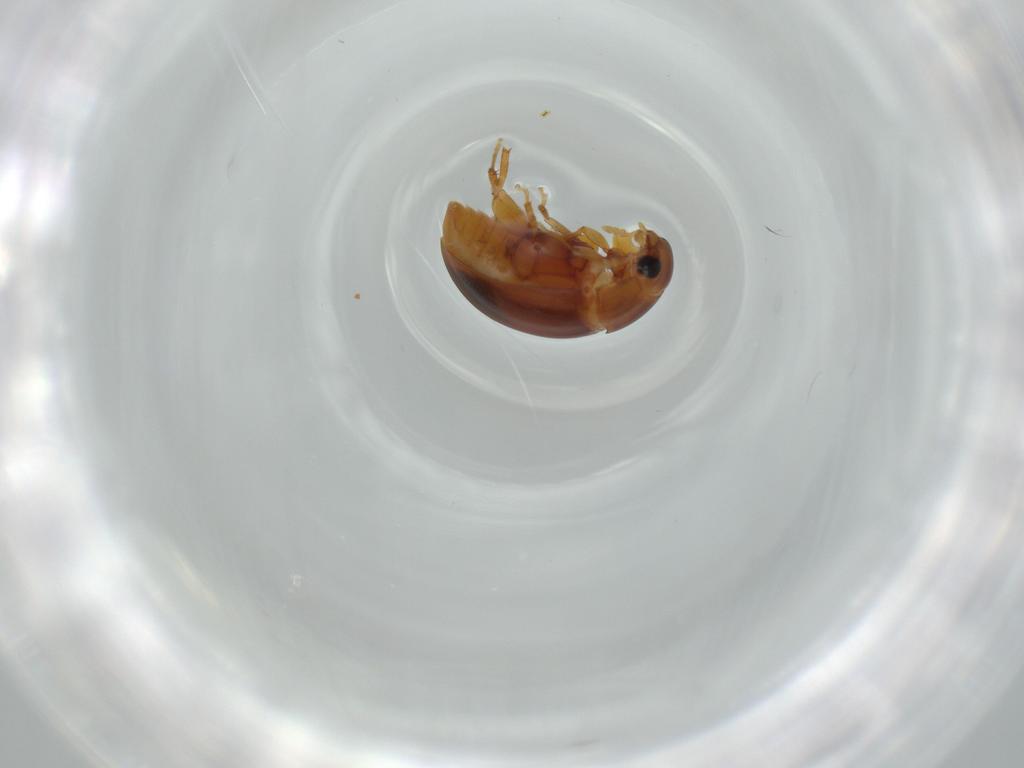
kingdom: Animalia
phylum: Arthropoda
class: Insecta
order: Coleoptera
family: Phalacridae
